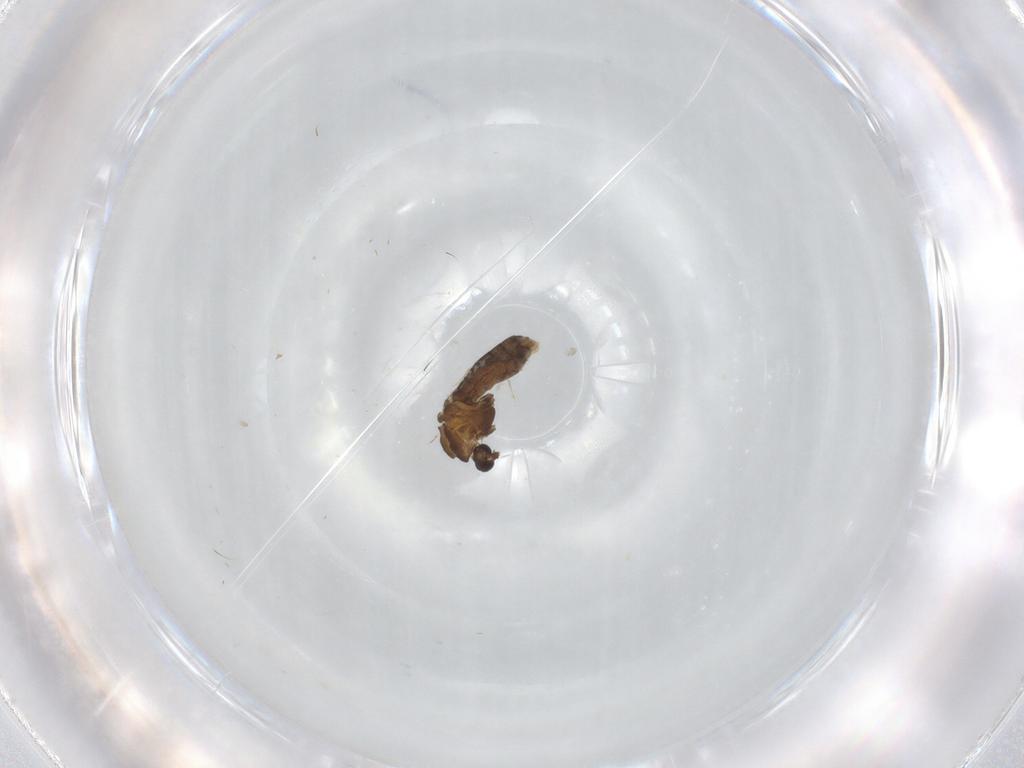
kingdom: Animalia
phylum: Arthropoda
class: Insecta
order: Diptera
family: Chironomidae
